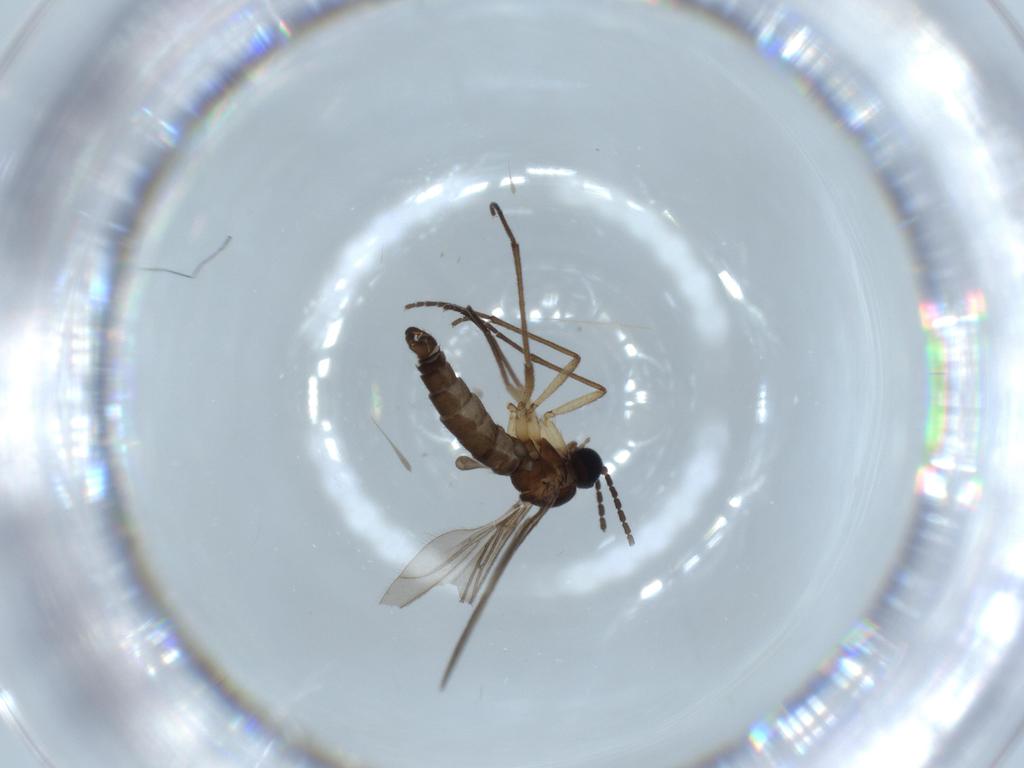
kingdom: Animalia
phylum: Arthropoda
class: Insecta
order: Diptera
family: Sciaridae
